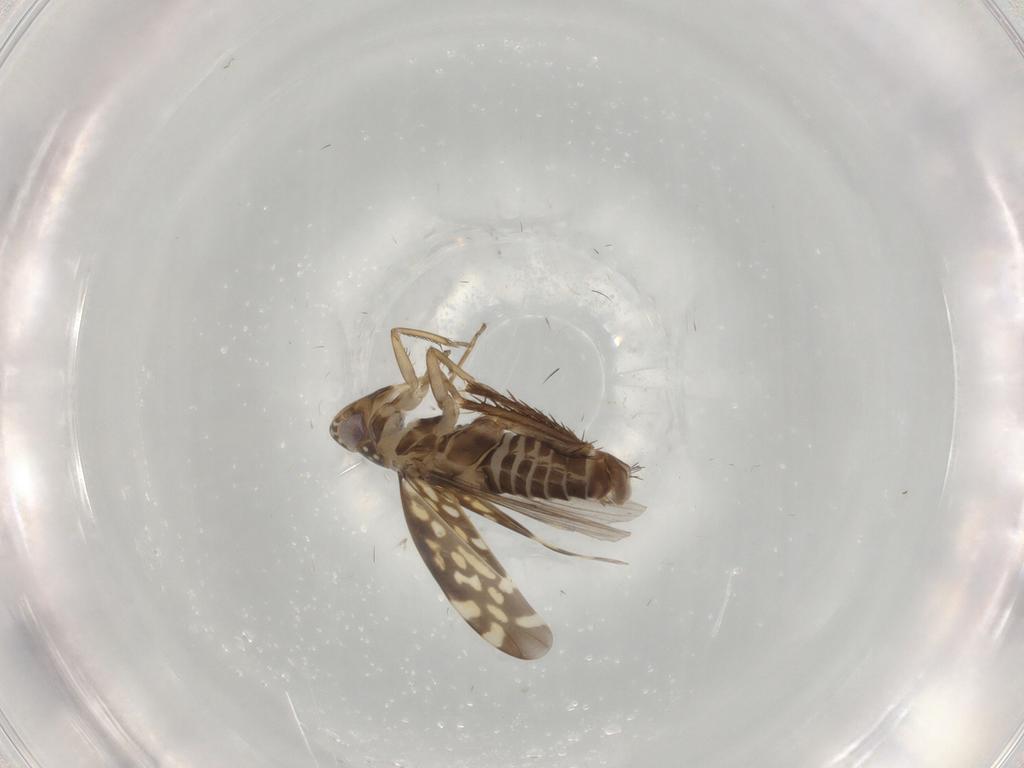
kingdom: Animalia
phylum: Arthropoda
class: Insecta
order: Hemiptera
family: Cicadellidae
